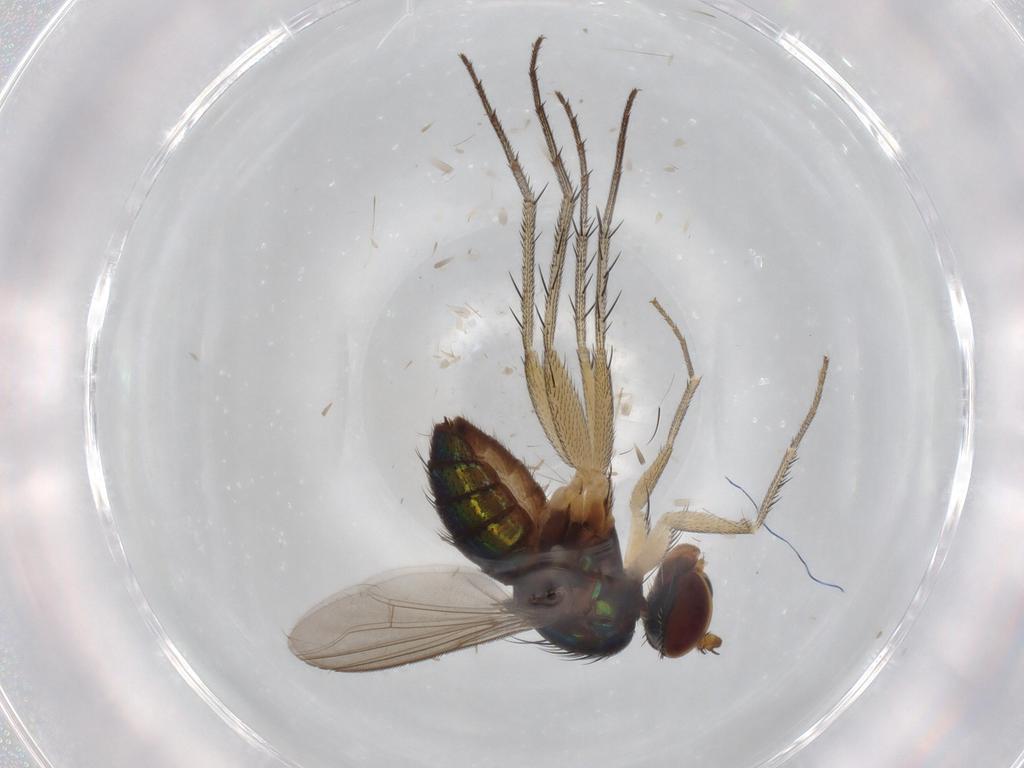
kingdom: Animalia
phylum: Arthropoda
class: Insecta
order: Diptera
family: Dolichopodidae
